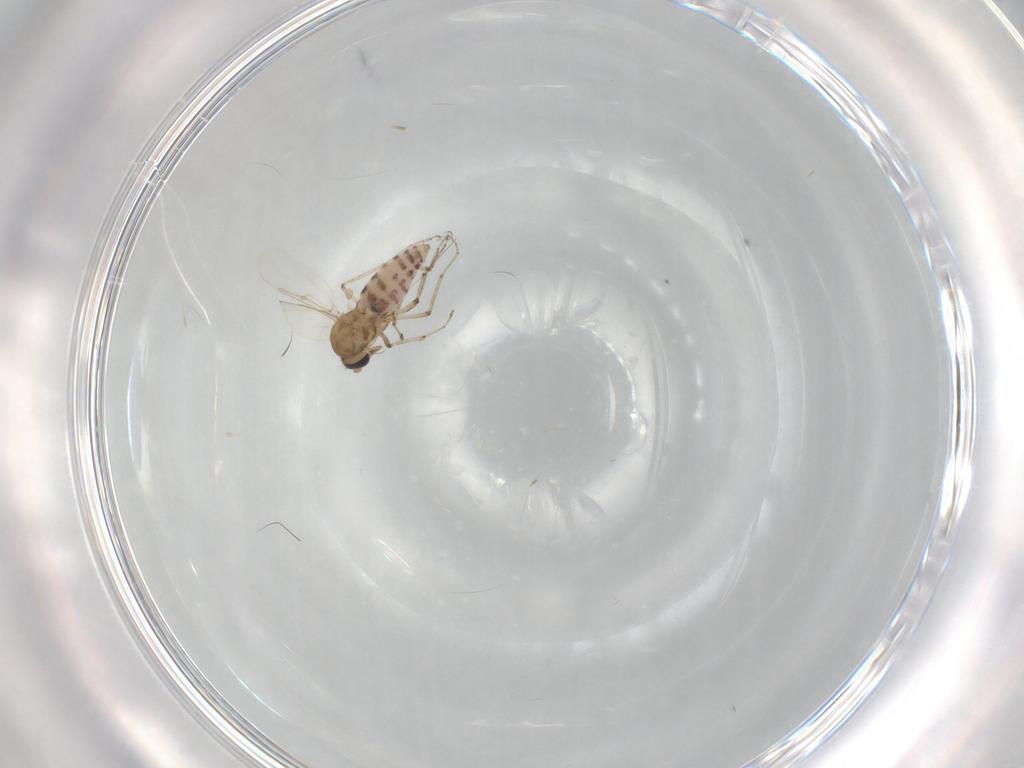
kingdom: Animalia
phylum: Arthropoda
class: Insecta
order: Diptera
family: Ceratopogonidae
